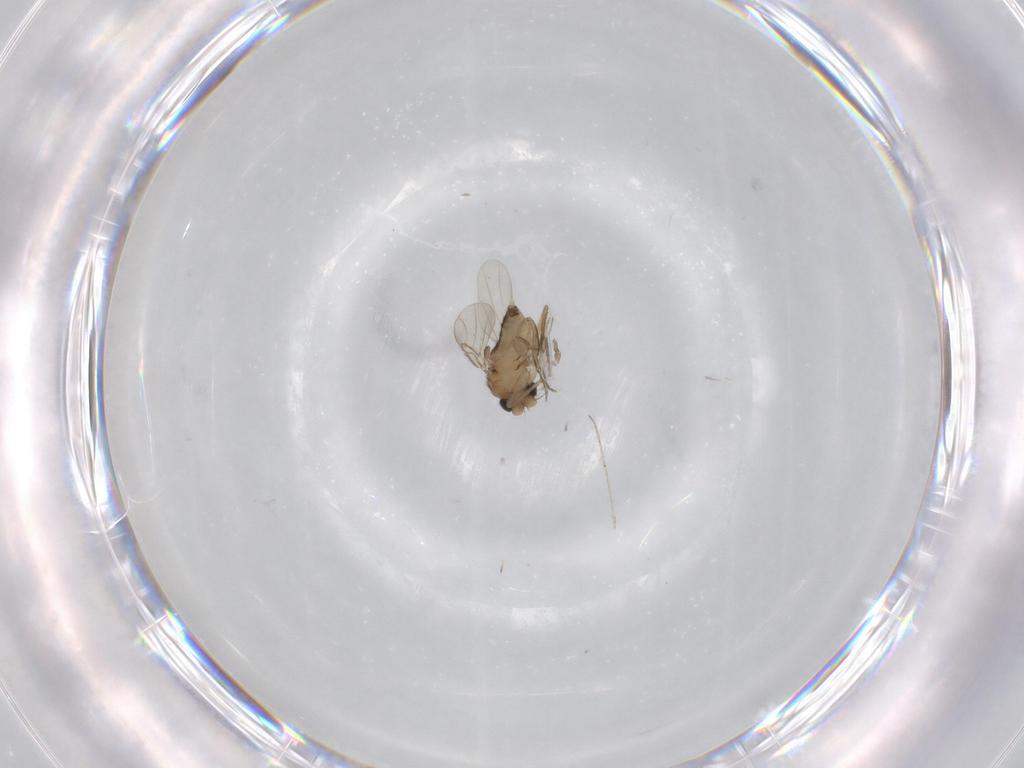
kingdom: Animalia
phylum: Arthropoda
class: Insecta
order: Diptera
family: Phoridae
